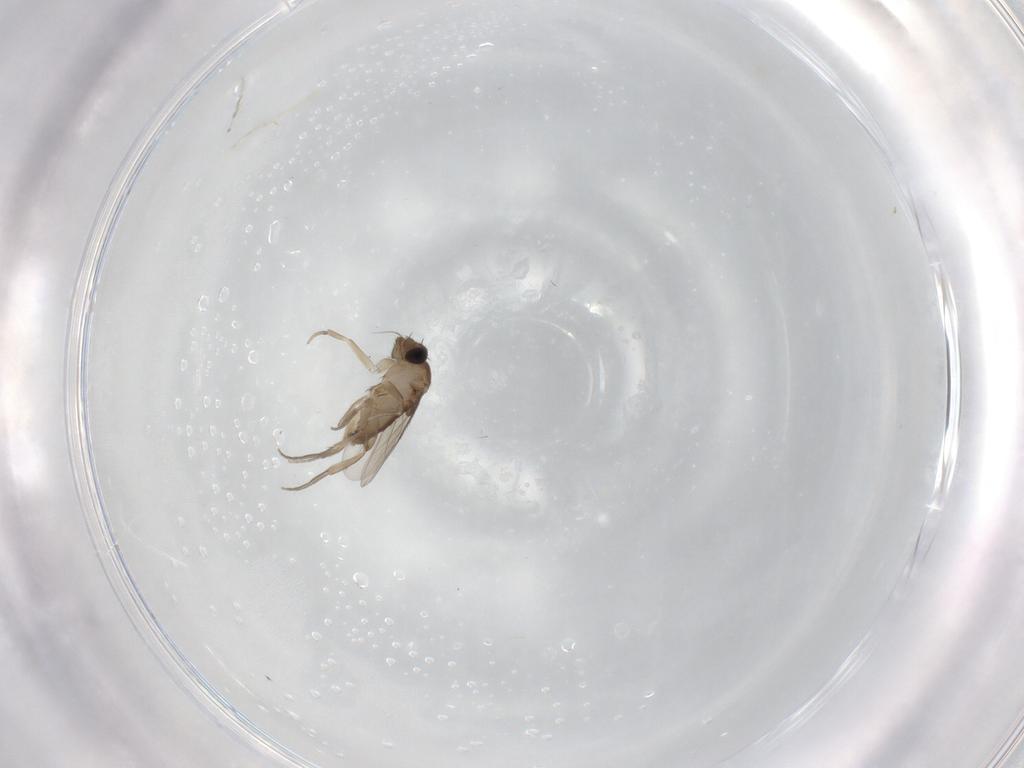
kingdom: Animalia
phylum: Arthropoda
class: Insecta
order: Diptera
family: Phoridae
